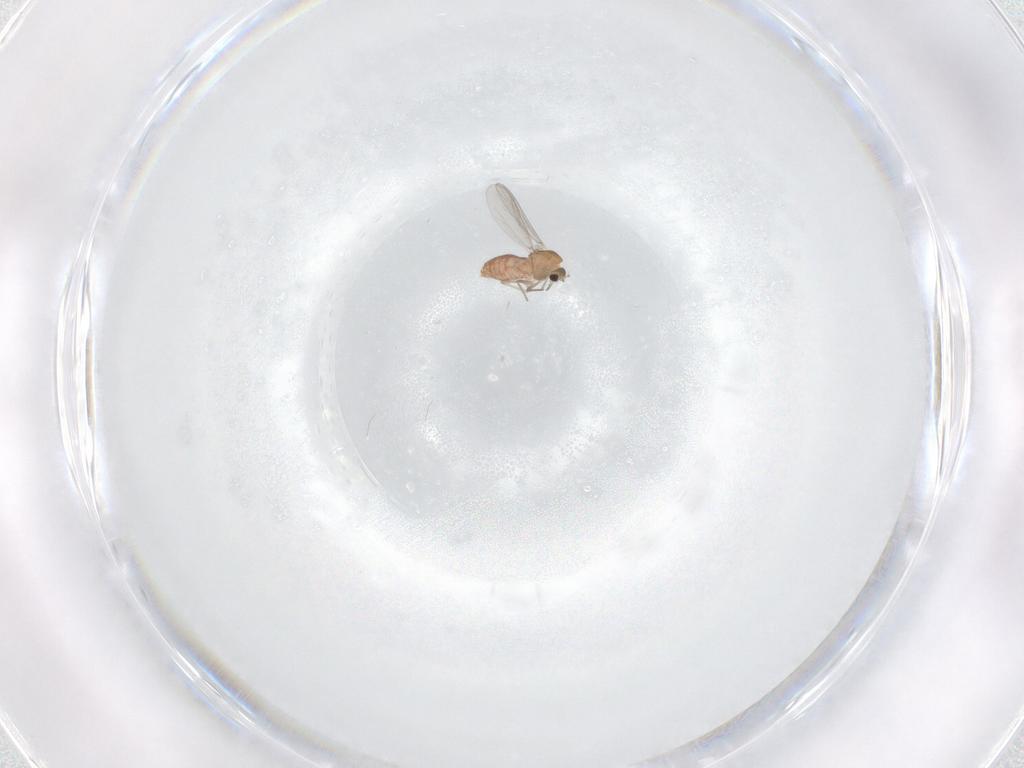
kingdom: Animalia
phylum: Arthropoda
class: Insecta
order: Diptera
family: Chironomidae
